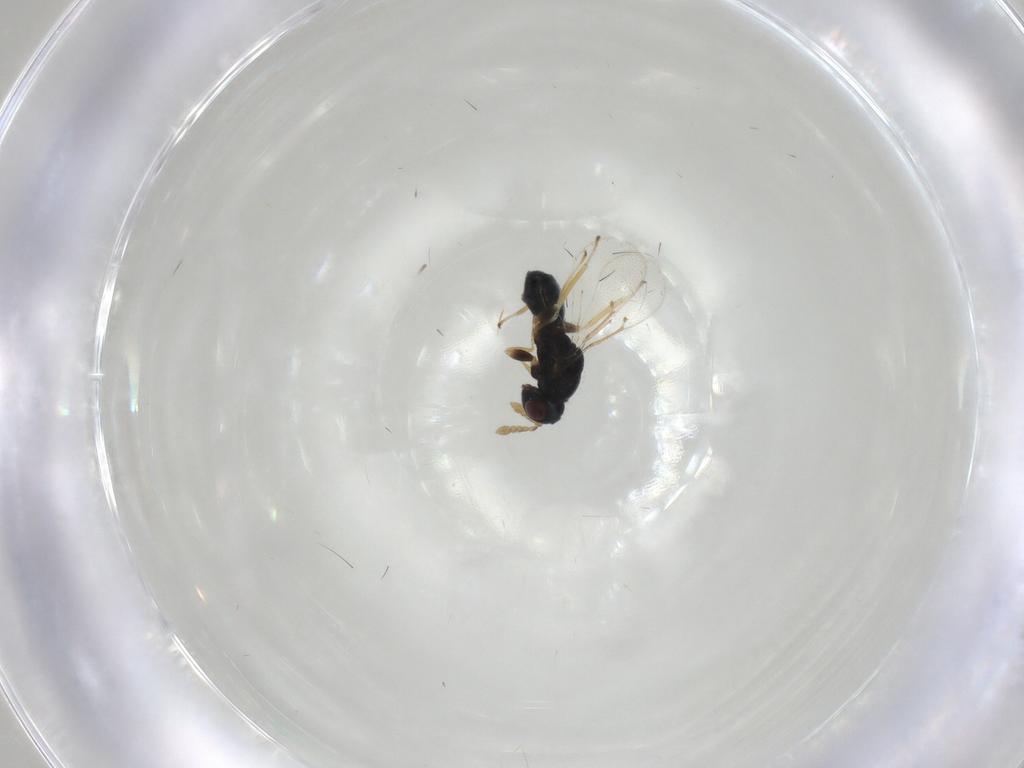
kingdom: Animalia
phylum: Arthropoda
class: Insecta
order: Hymenoptera
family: Eulophidae
